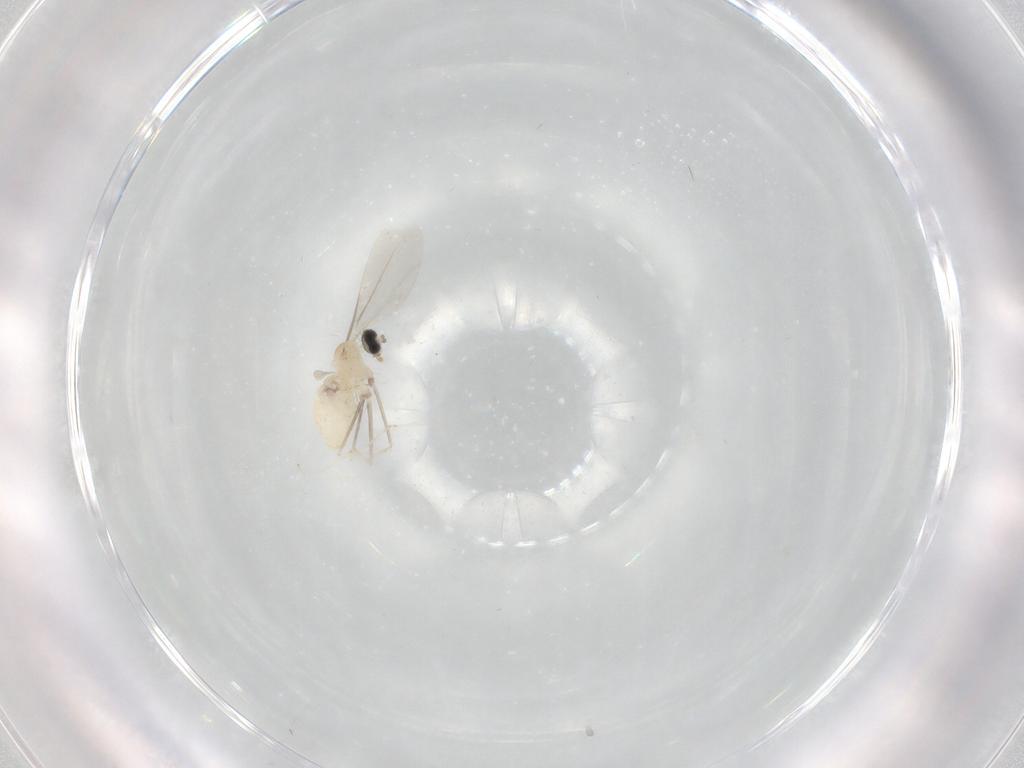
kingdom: Animalia
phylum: Arthropoda
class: Insecta
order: Diptera
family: Cecidomyiidae
